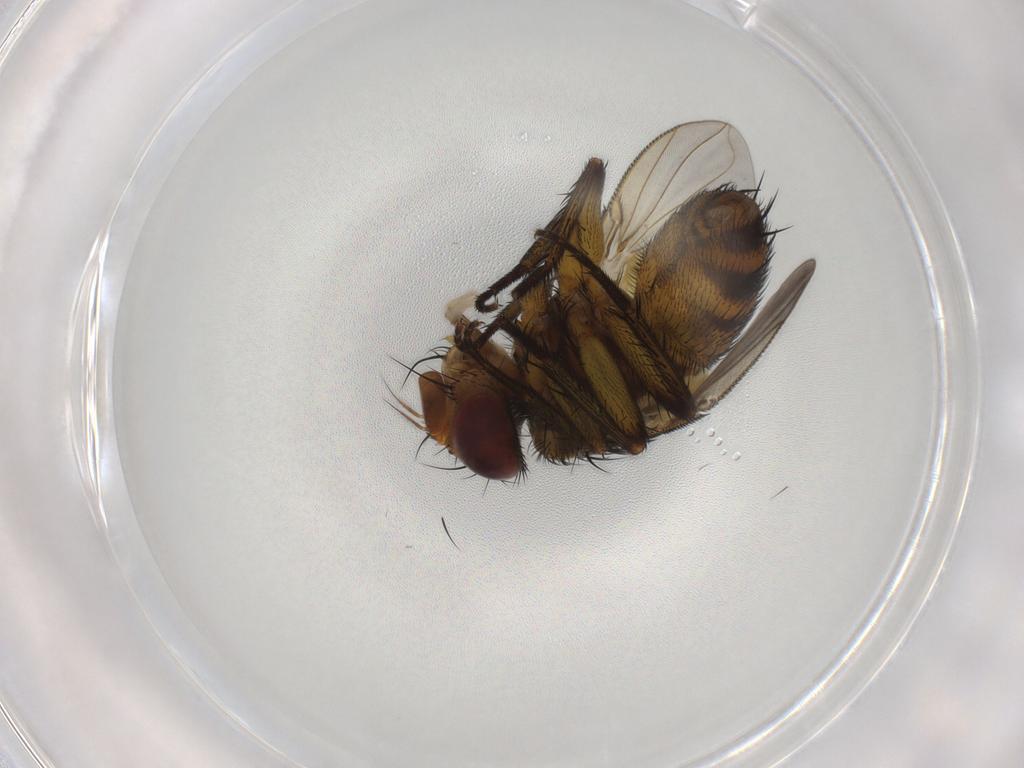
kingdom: Animalia
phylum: Arthropoda
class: Insecta
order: Diptera
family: Tachinidae
